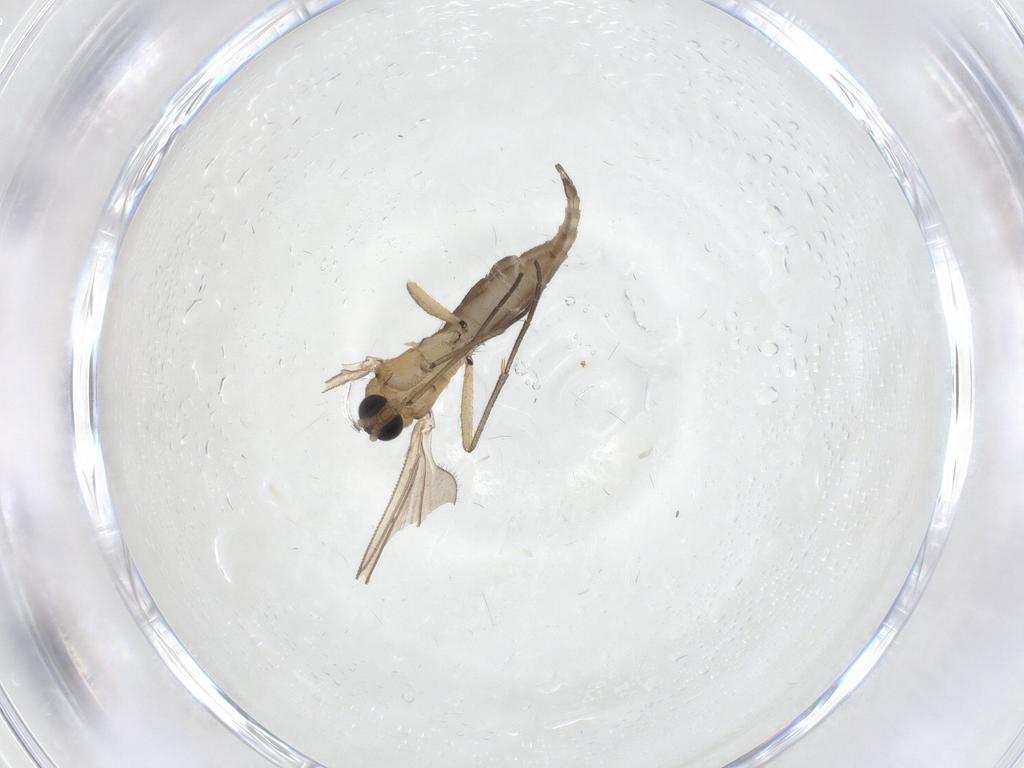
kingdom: Animalia
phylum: Arthropoda
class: Insecta
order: Diptera
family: Sciaridae
